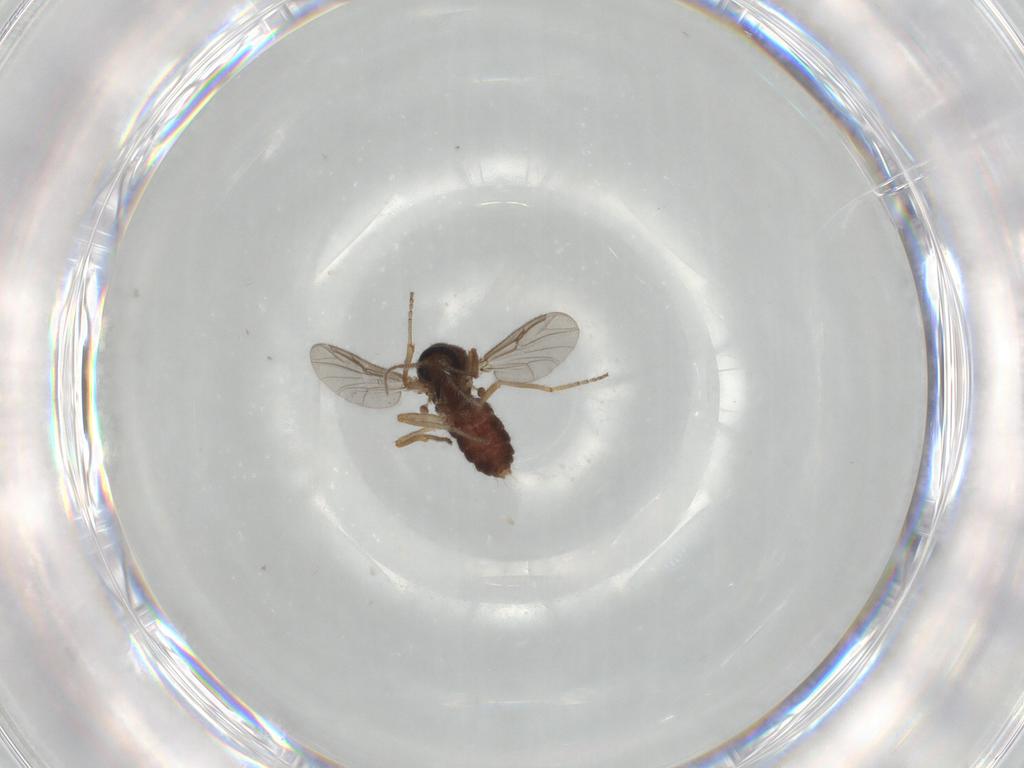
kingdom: Animalia
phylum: Arthropoda
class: Insecta
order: Diptera
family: Ceratopogonidae
